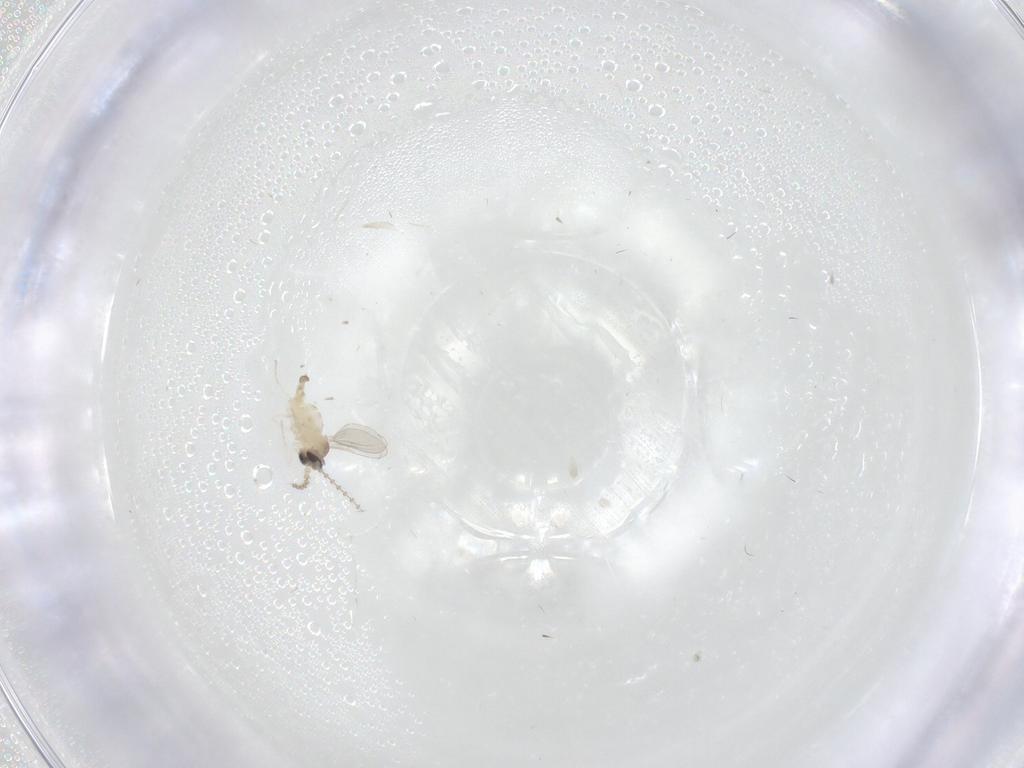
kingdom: Animalia
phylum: Arthropoda
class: Insecta
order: Diptera
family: Cecidomyiidae
